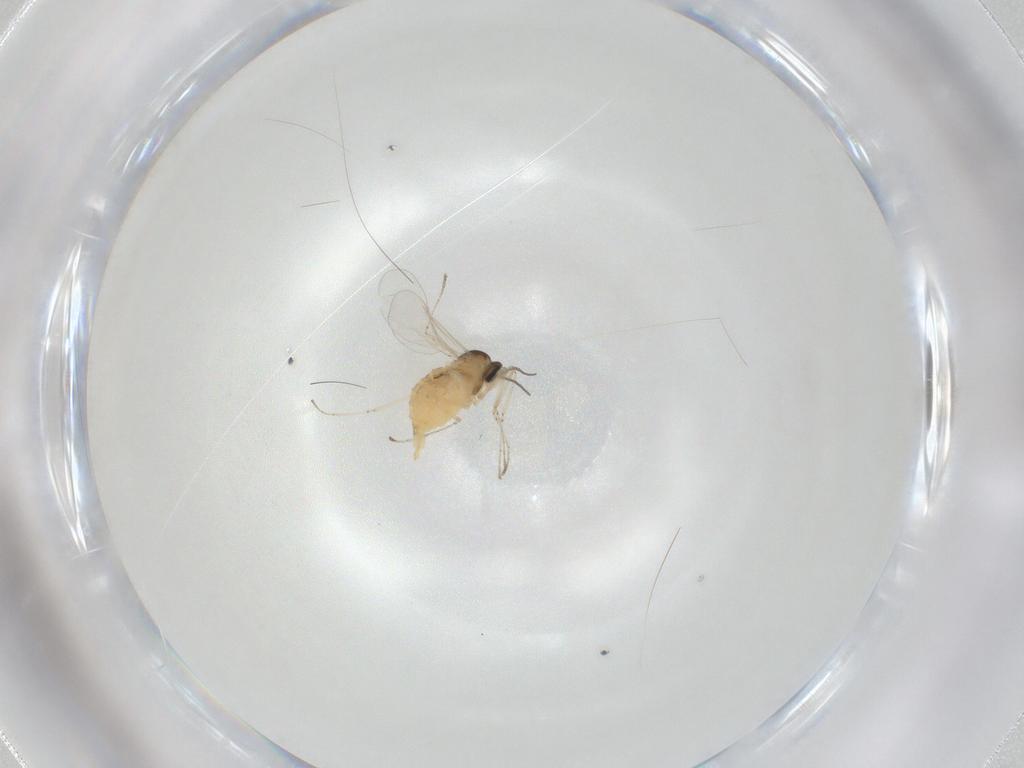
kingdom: Animalia
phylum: Arthropoda
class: Insecta
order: Diptera
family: Cecidomyiidae
